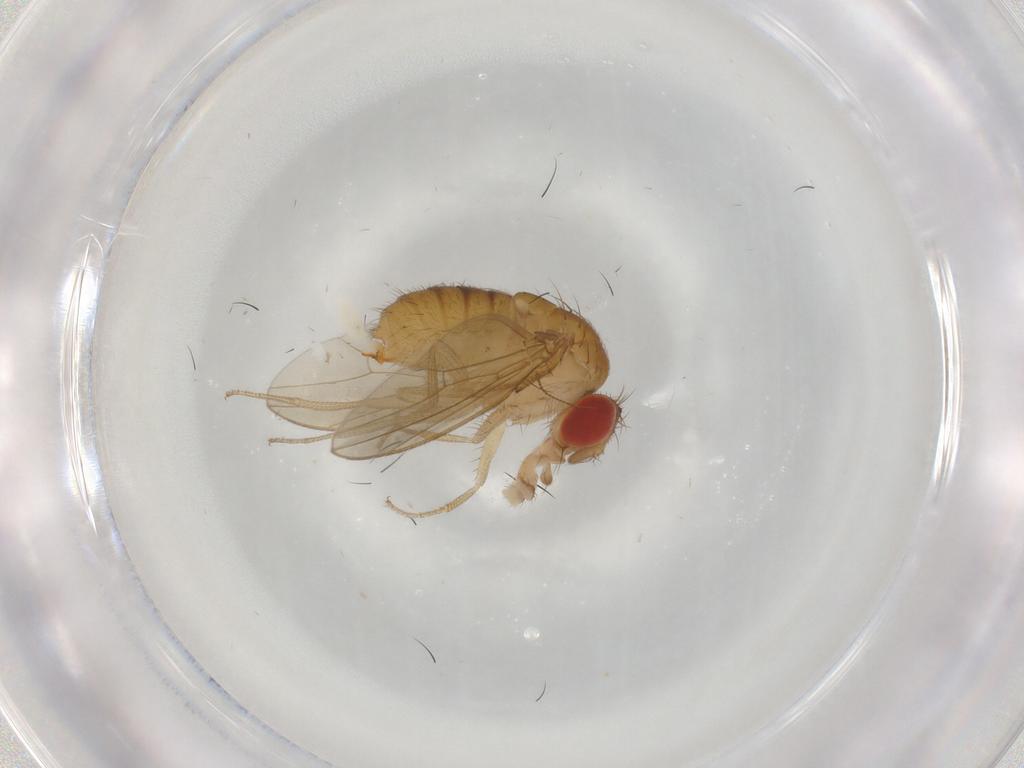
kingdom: Animalia
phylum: Arthropoda
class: Insecta
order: Diptera
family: Drosophilidae
